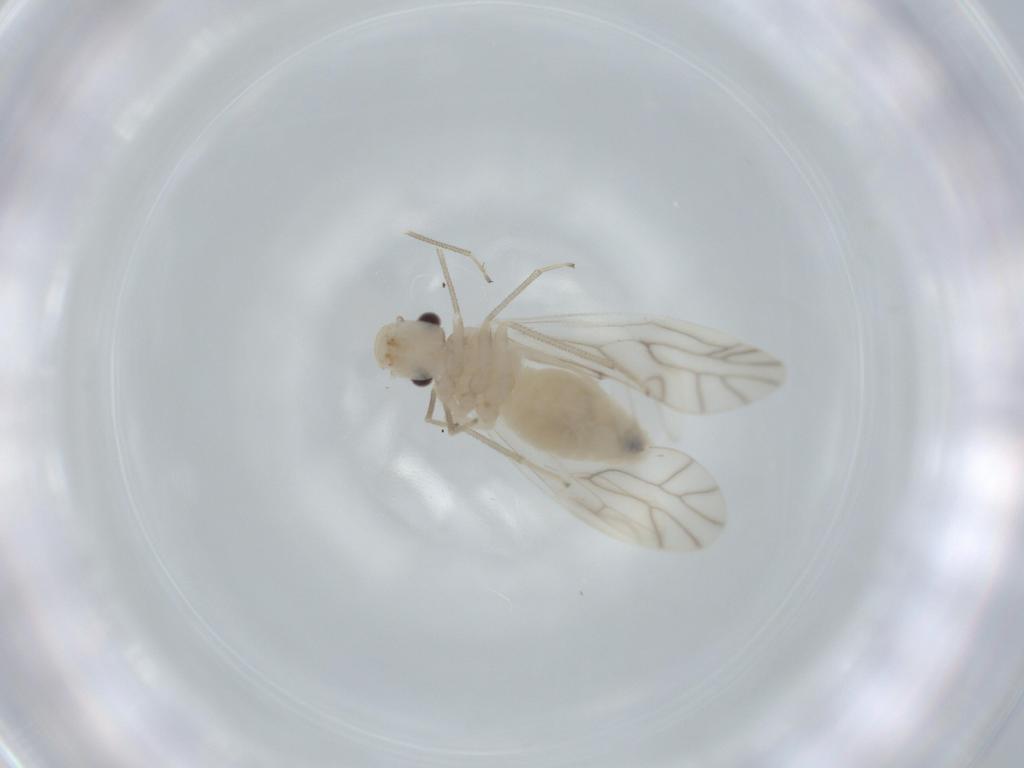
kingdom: Animalia
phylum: Arthropoda
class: Insecta
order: Psocodea
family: Caeciliusidae
